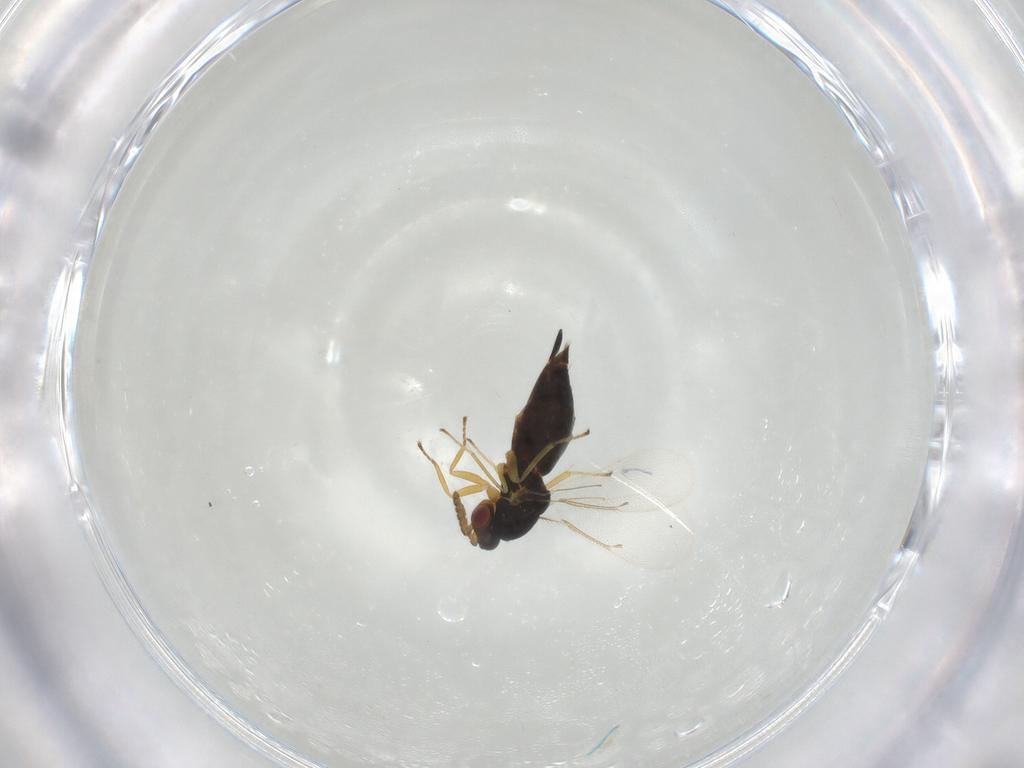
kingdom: Animalia
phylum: Arthropoda
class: Insecta
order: Hymenoptera
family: Eulophidae
